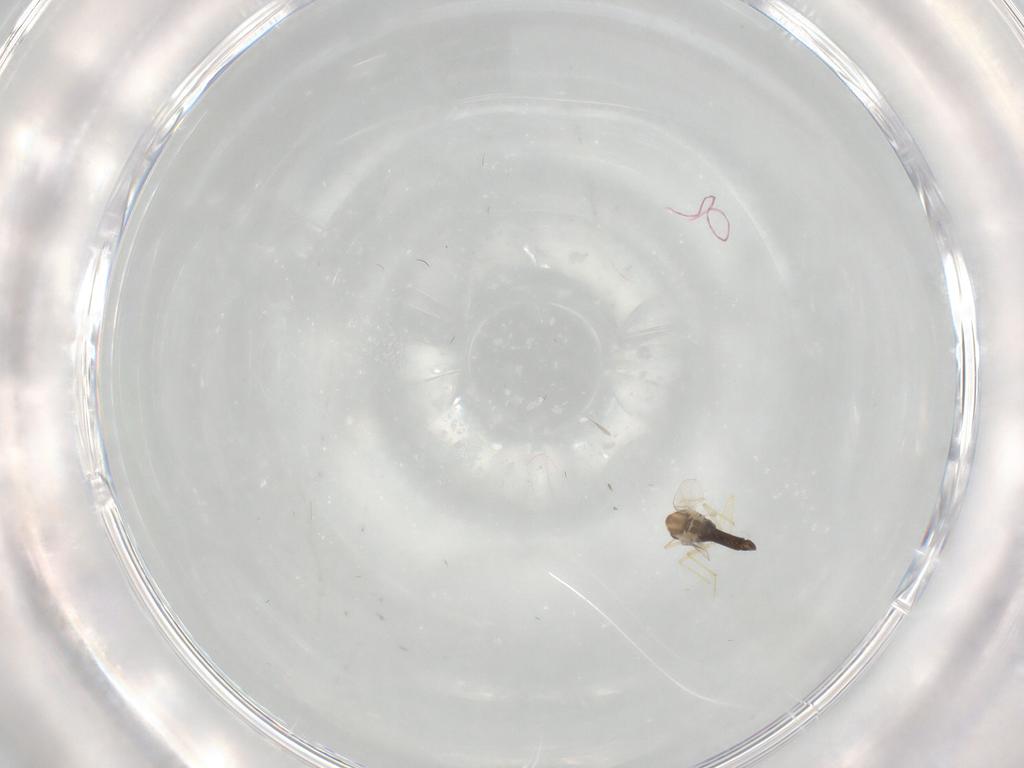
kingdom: Animalia
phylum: Arthropoda
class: Insecta
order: Diptera
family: Chironomidae
